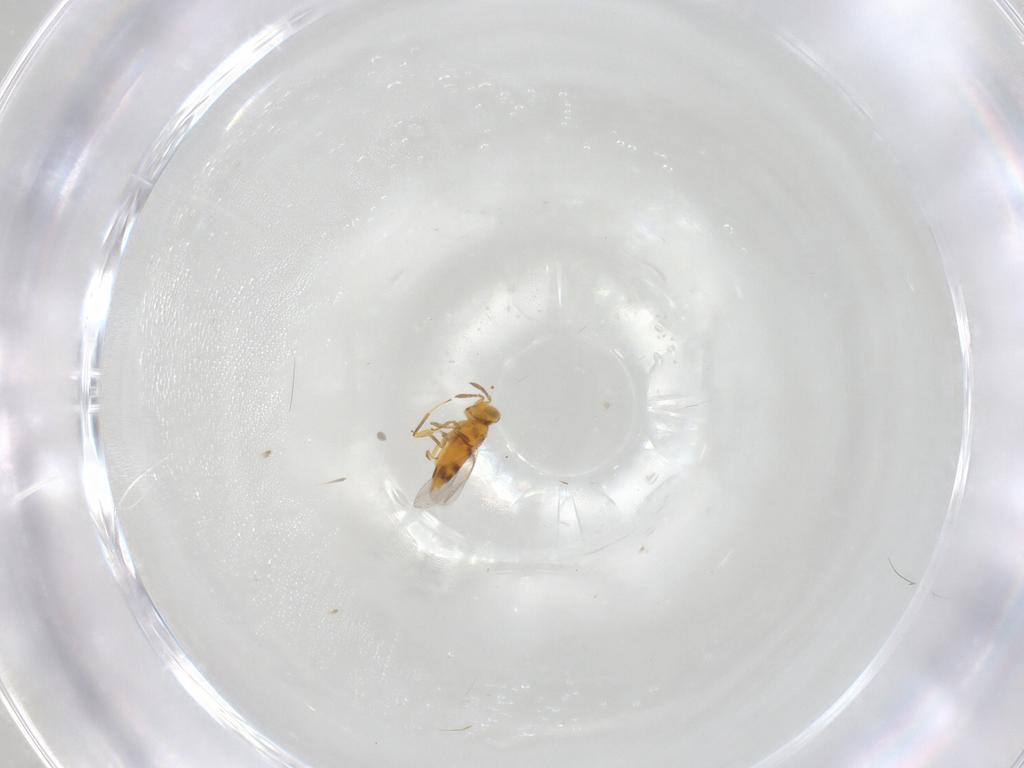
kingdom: Animalia
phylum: Arthropoda
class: Insecta
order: Hymenoptera
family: Aphelinidae
